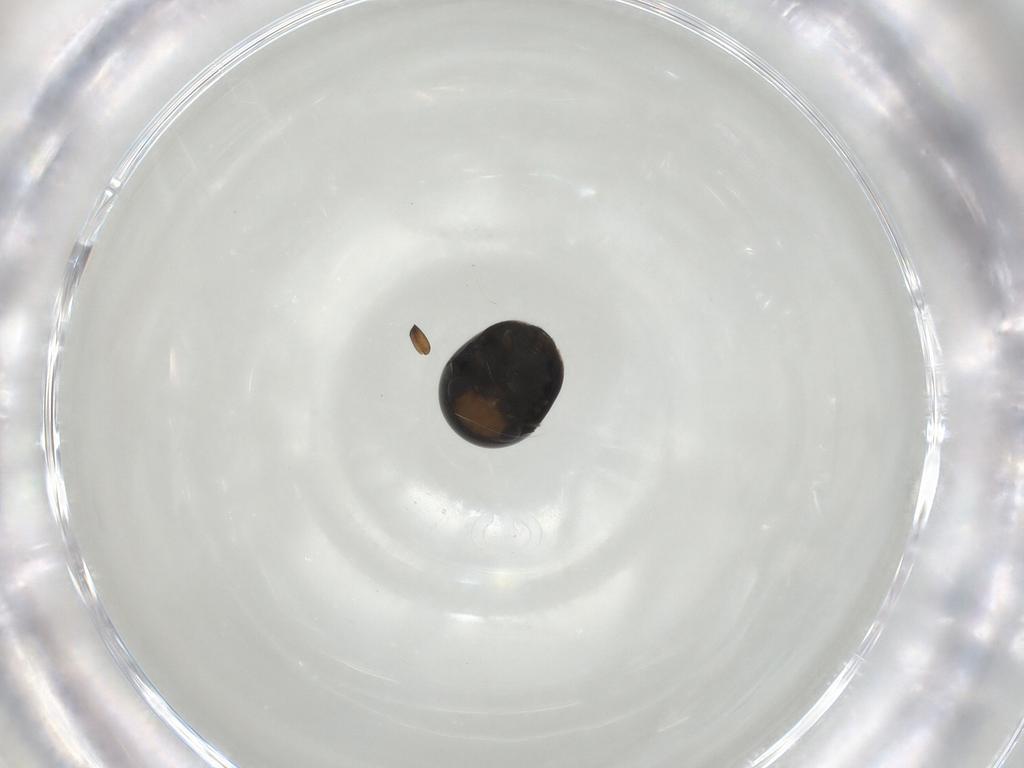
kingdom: Animalia
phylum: Arthropoda
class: Insecta
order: Coleoptera
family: Cybocephalidae
